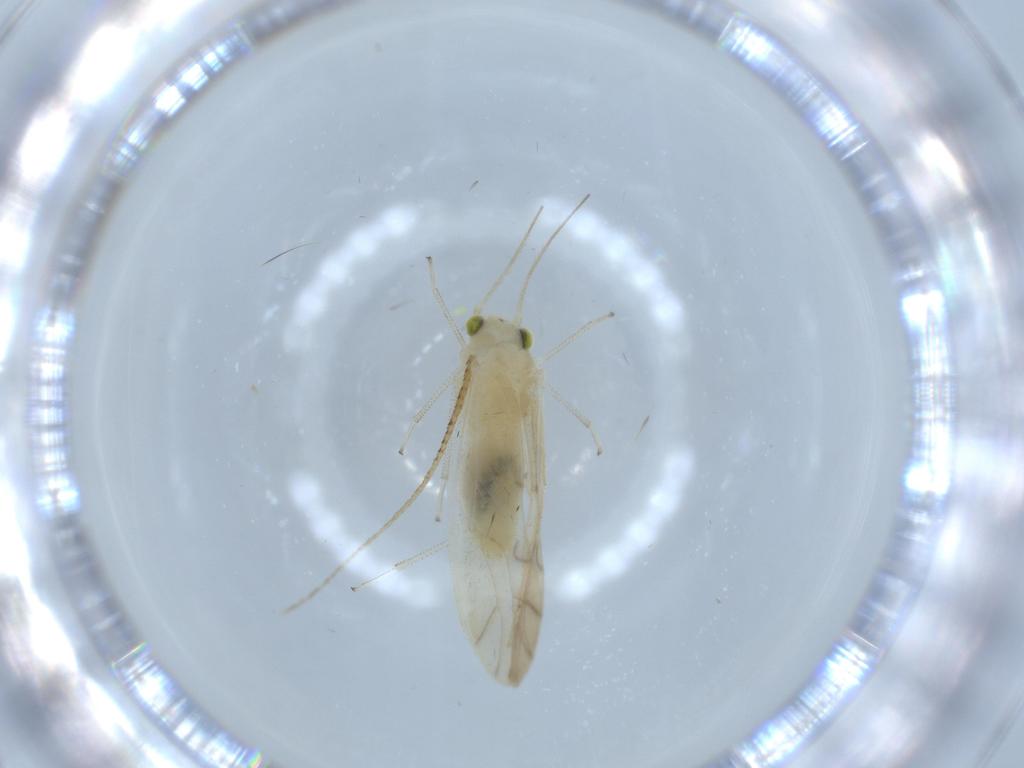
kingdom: Animalia
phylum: Arthropoda
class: Insecta
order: Psocodea
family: Caeciliusidae
